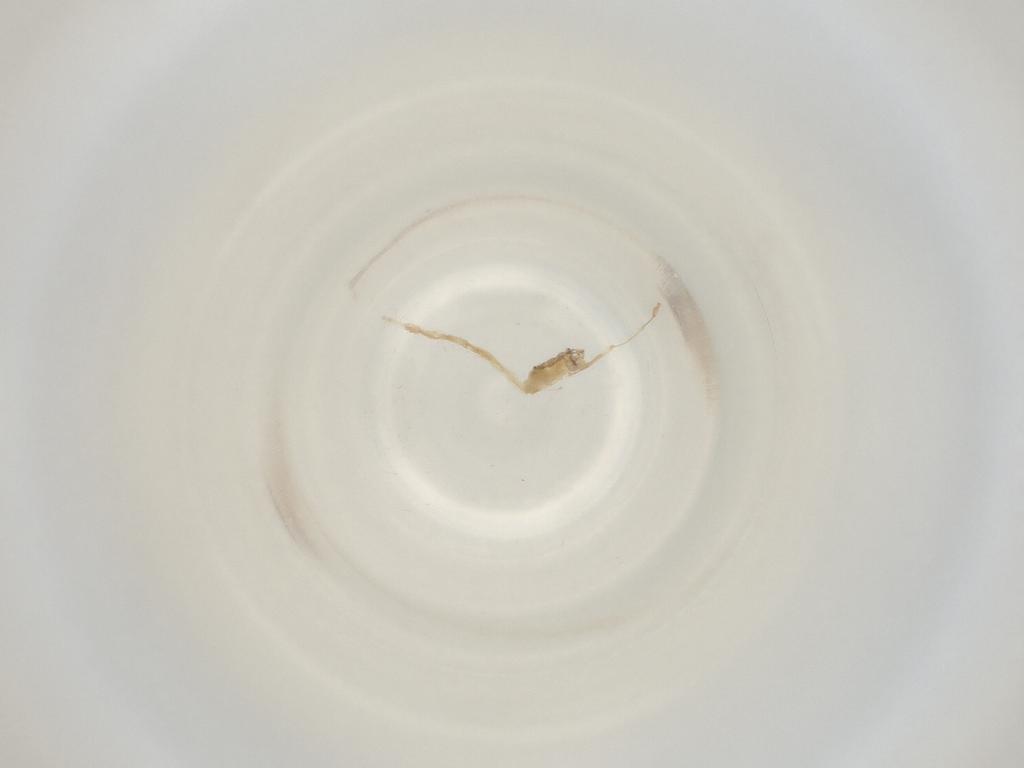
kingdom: Animalia
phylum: Arthropoda
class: Insecta
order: Diptera
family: Cecidomyiidae
